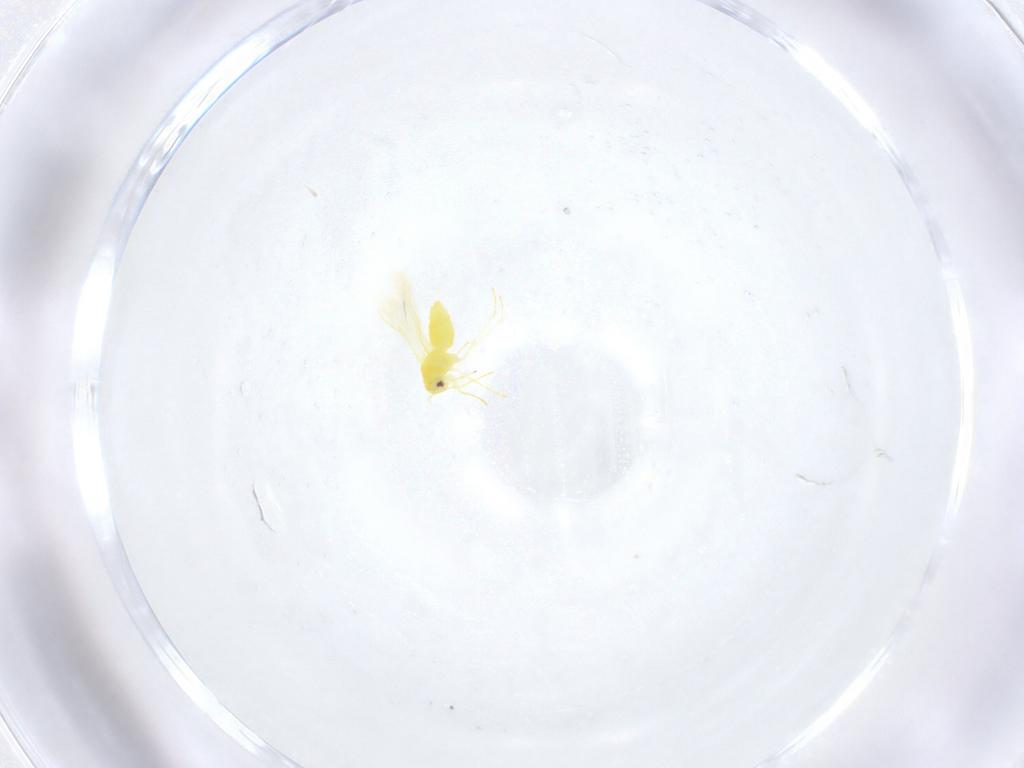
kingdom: Animalia
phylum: Arthropoda
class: Insecta
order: Hemiptera
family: Aleyrodidae
